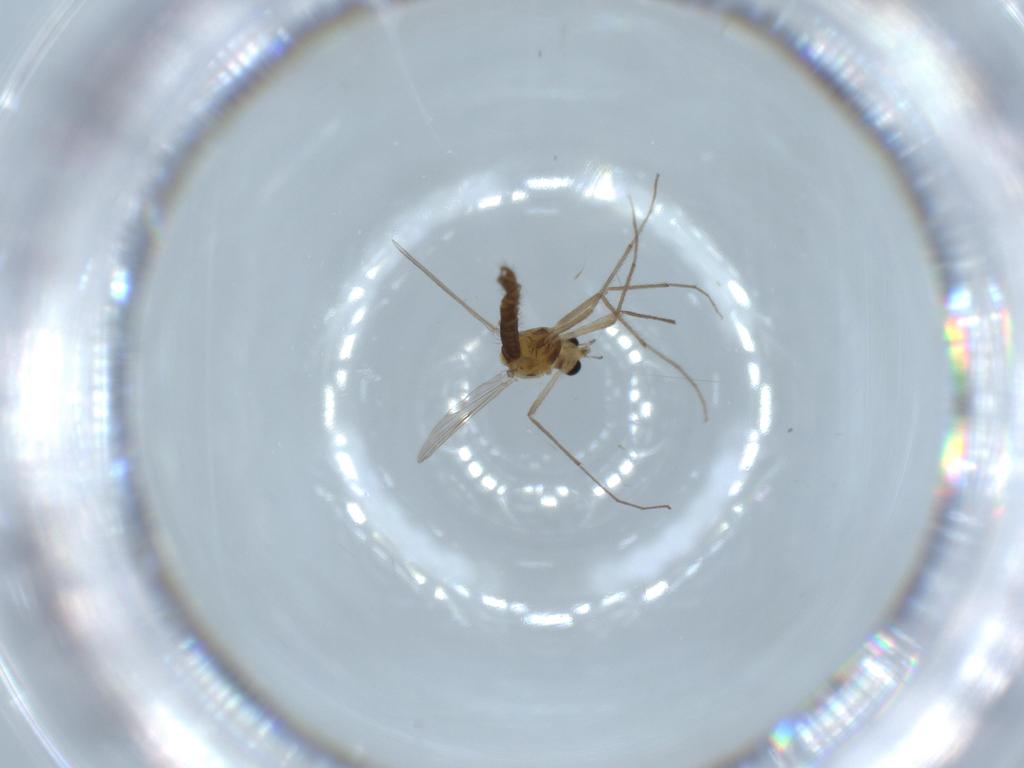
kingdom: Animalia
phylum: Arthropoda
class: Insecta
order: Diptera
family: Chironomidae
